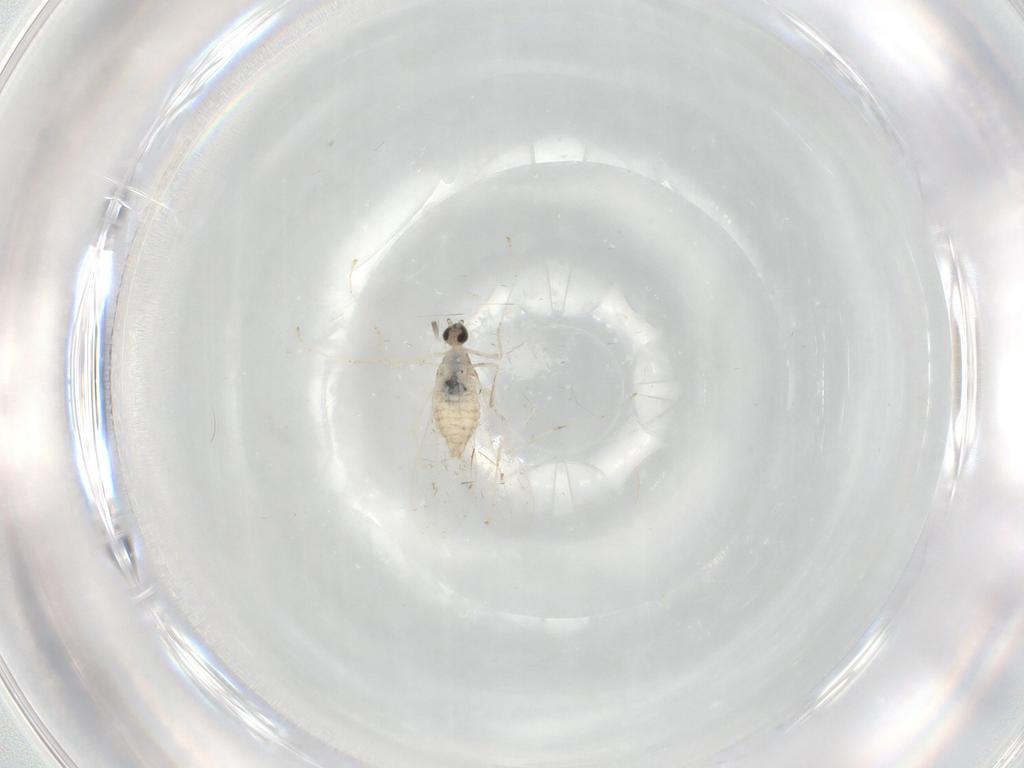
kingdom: Animalia
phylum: Arthropoda
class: Insecta
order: Diptera
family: Cecidomyiidae
